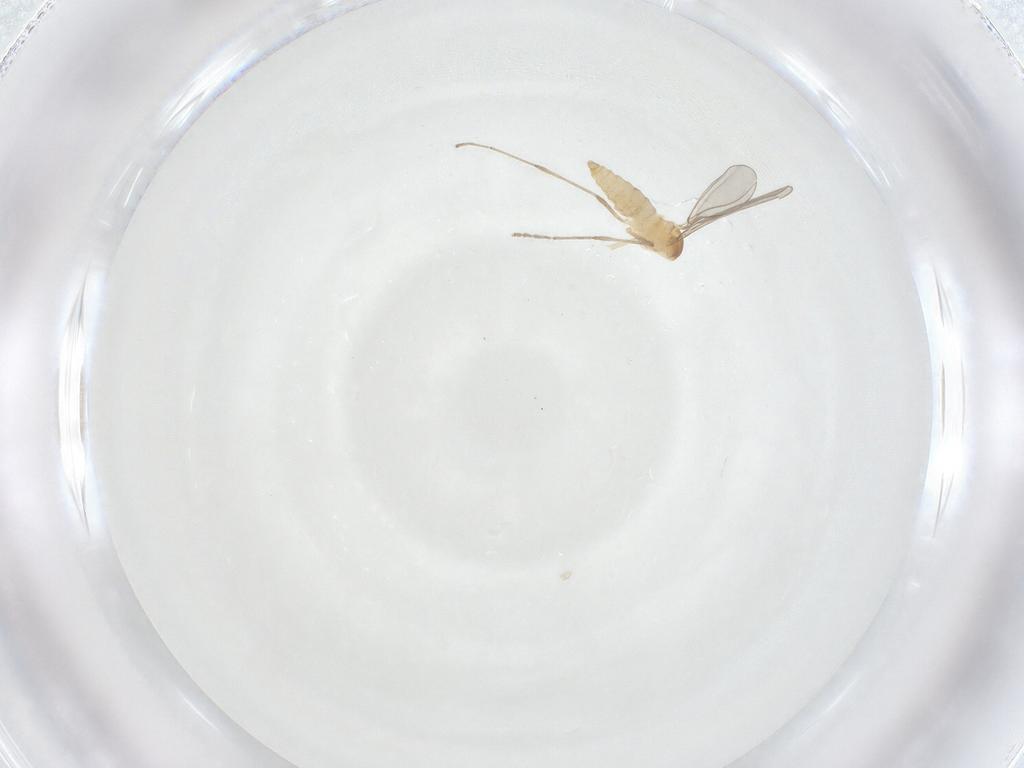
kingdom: Animalia
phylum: Arthropoda
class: Insecta
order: Diptera
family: Cecidomyiidae
